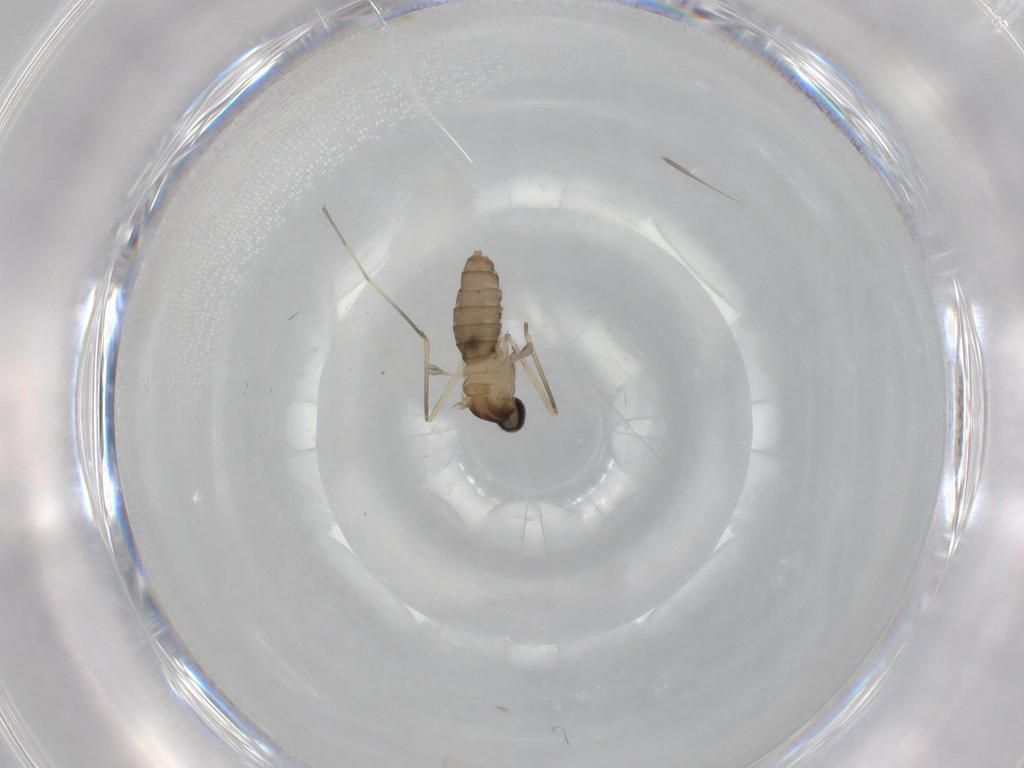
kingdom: Animalia
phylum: Arthropoda
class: Insecta
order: Diptera
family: Cecidomyiidae
